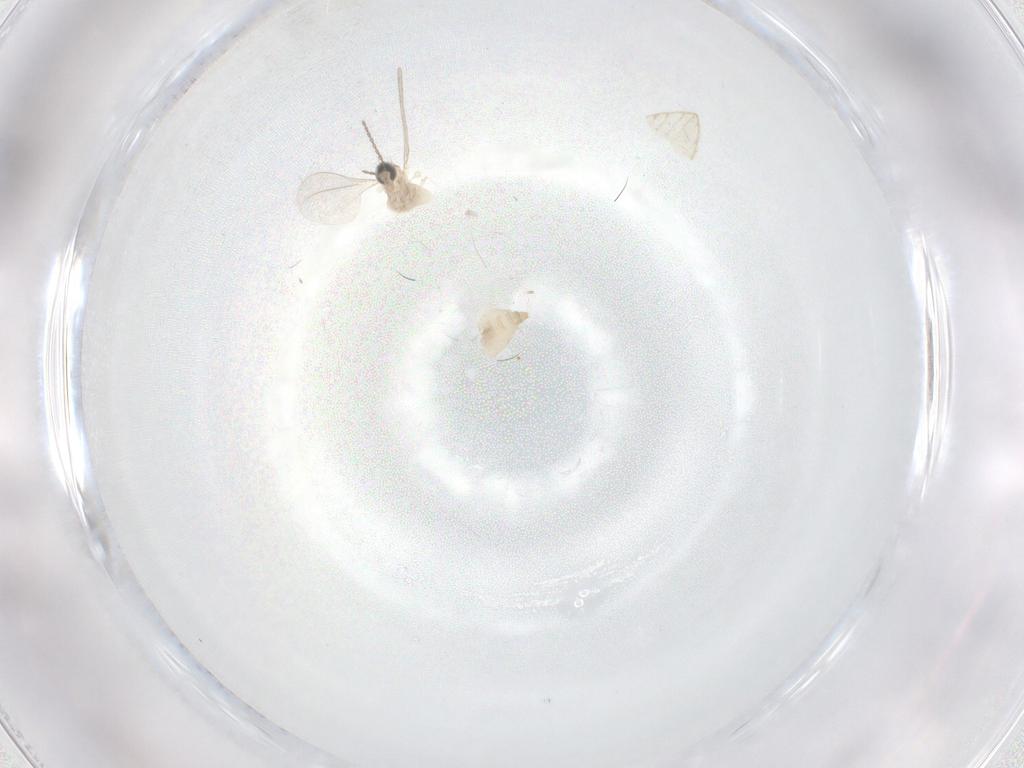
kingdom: Animalia
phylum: Arthropoda
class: Insecta
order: Diptera
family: Cecidomyiidae
